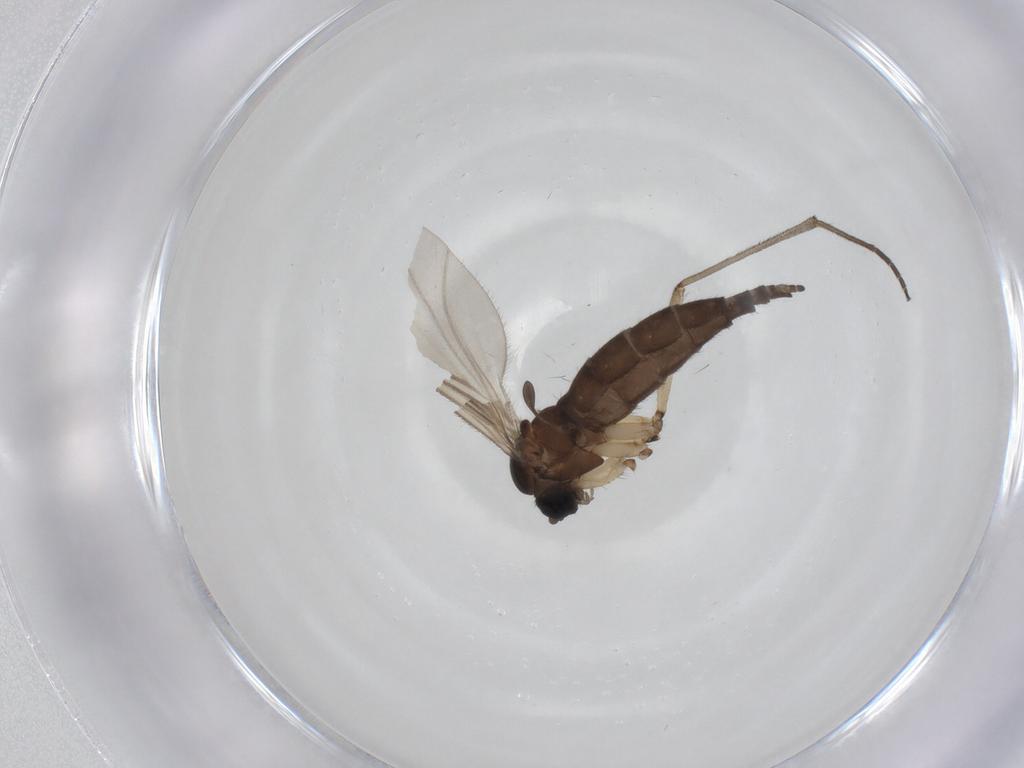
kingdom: Animalia
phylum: Arthropoda
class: Insecta
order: Diptera
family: Sciaridae
